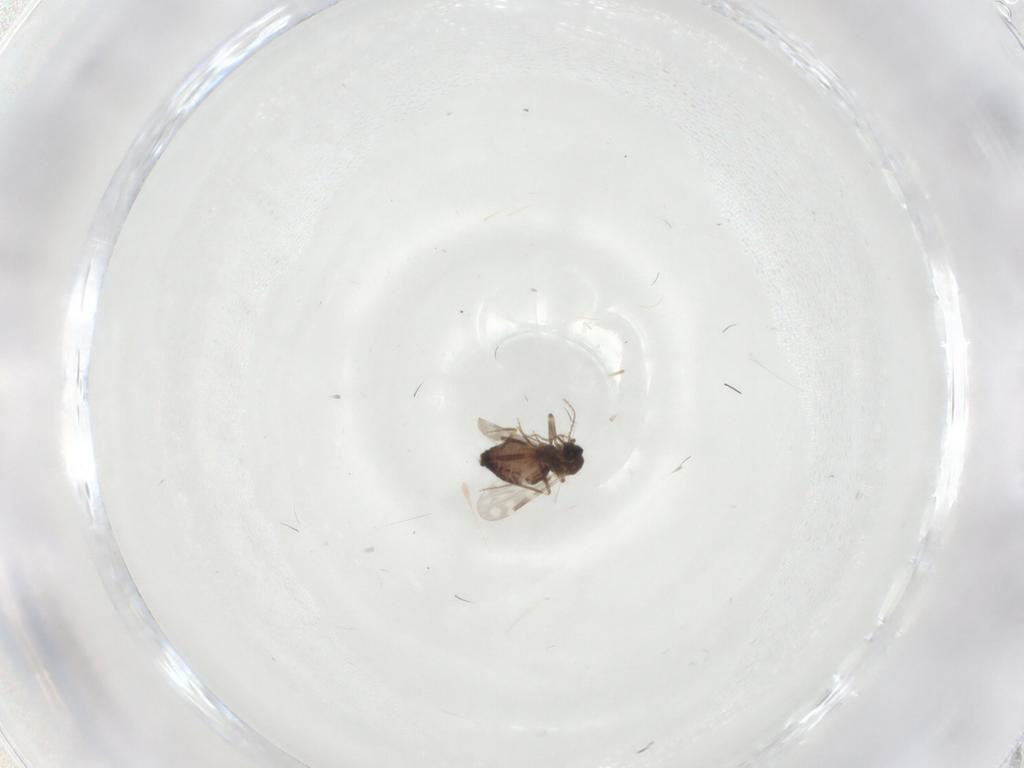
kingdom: Animalia
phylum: Arthropoda
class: Insecta
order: Diptera
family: Ceratopogonidae
